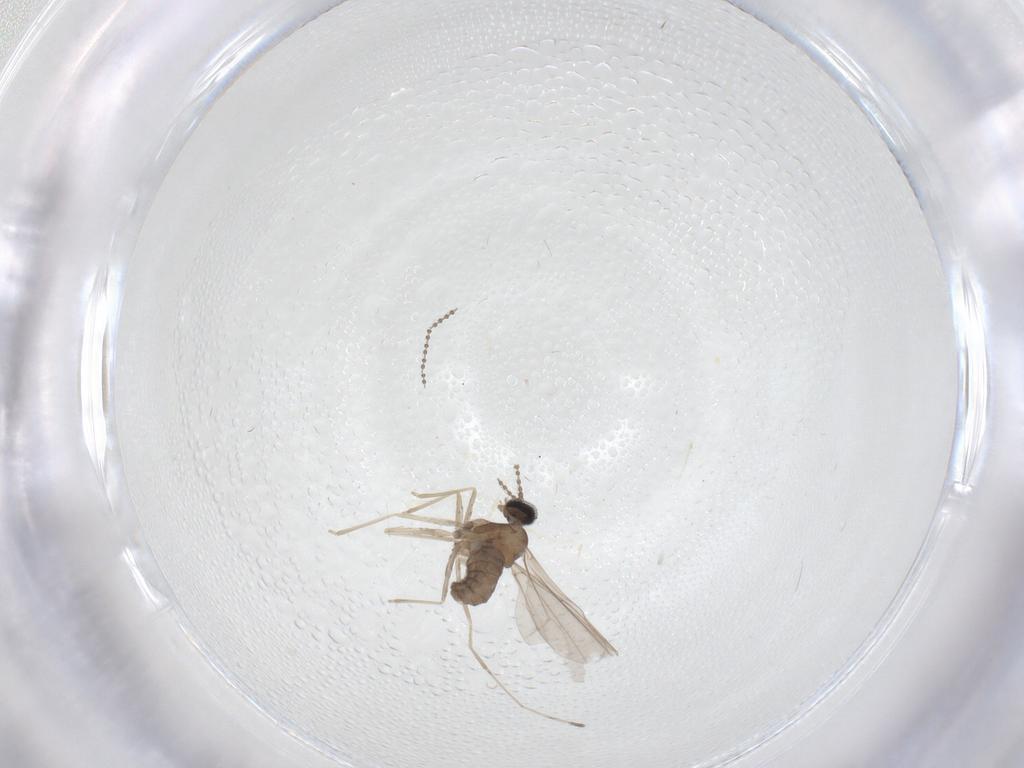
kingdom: Animalia
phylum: Arthropoda
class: Insecta
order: Diptera
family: Cecidomyiidae
